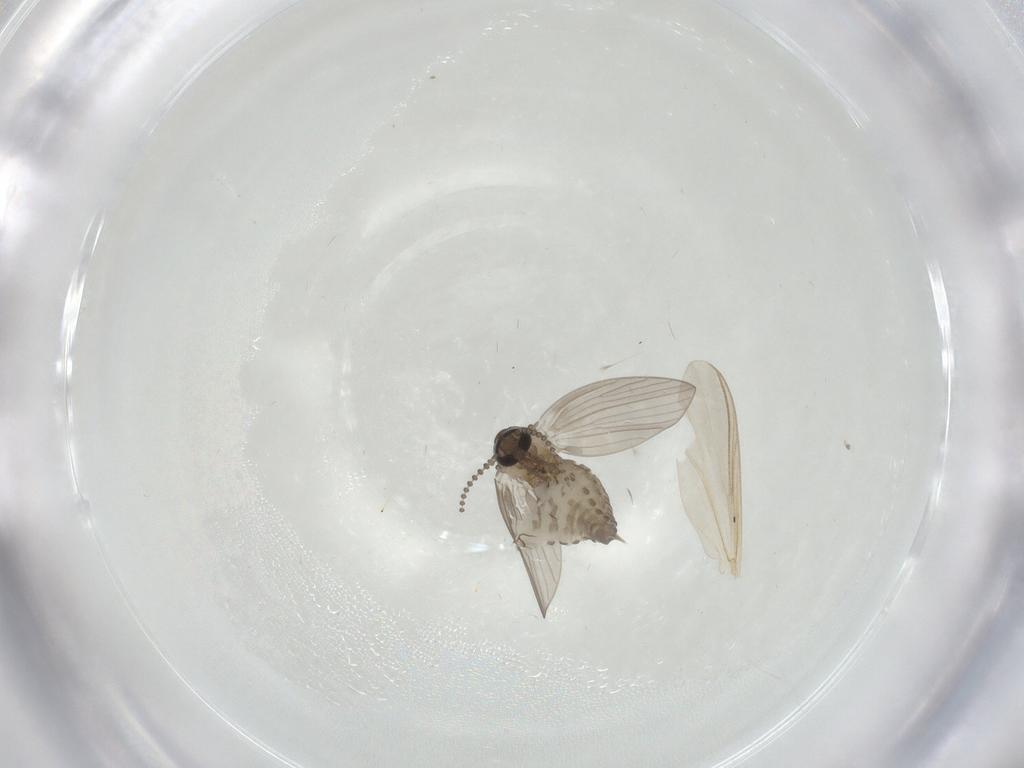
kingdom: Animalia
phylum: Arthropoda
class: Insecta
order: Diptera
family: Psychodidae
